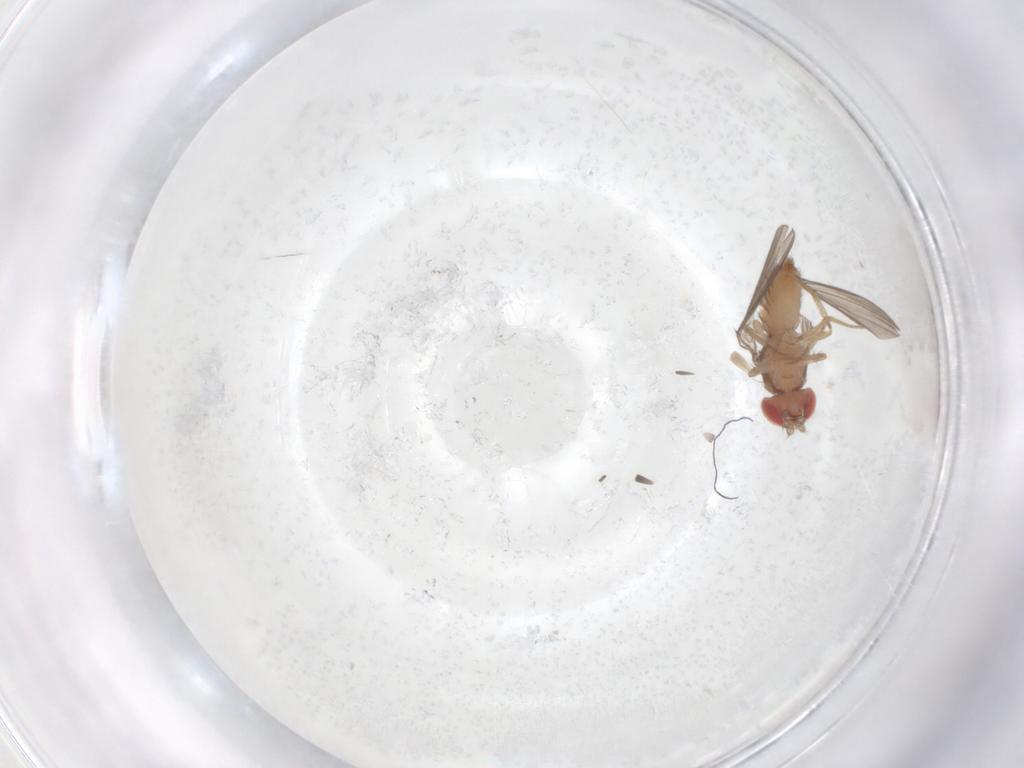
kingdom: Animalia
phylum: Arthropoda
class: Insecta
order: Diptera
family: Drosophilidae
